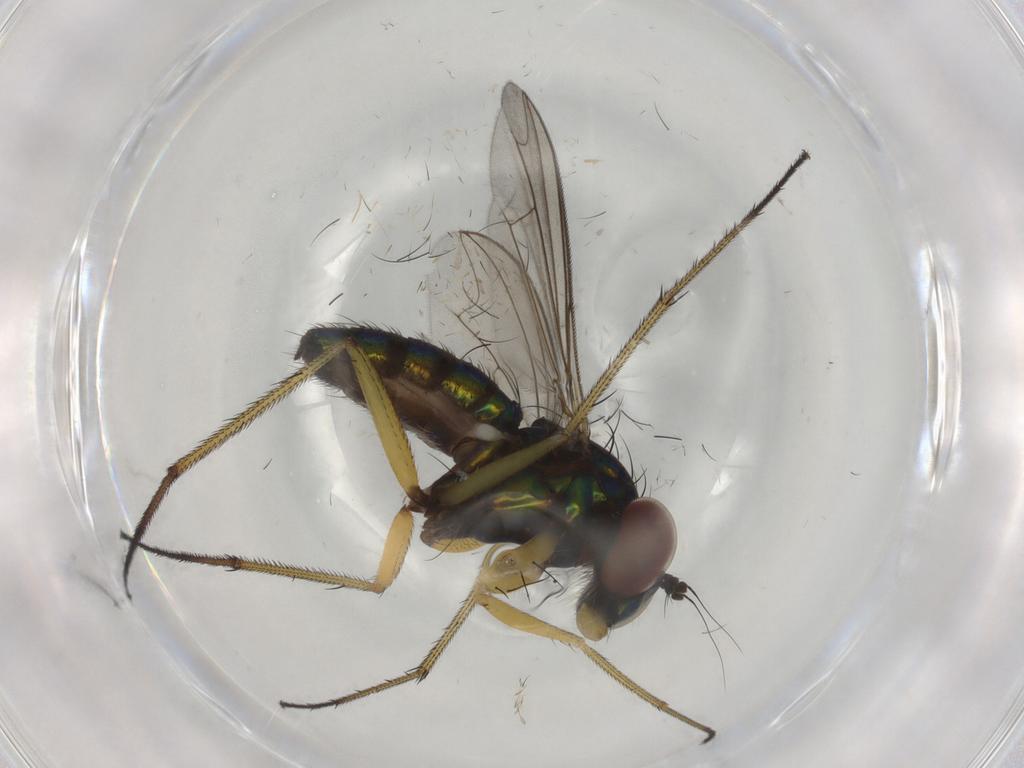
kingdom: Animalia
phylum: Arthropoda
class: Insecta
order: Diptera
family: Dolichopodidae
